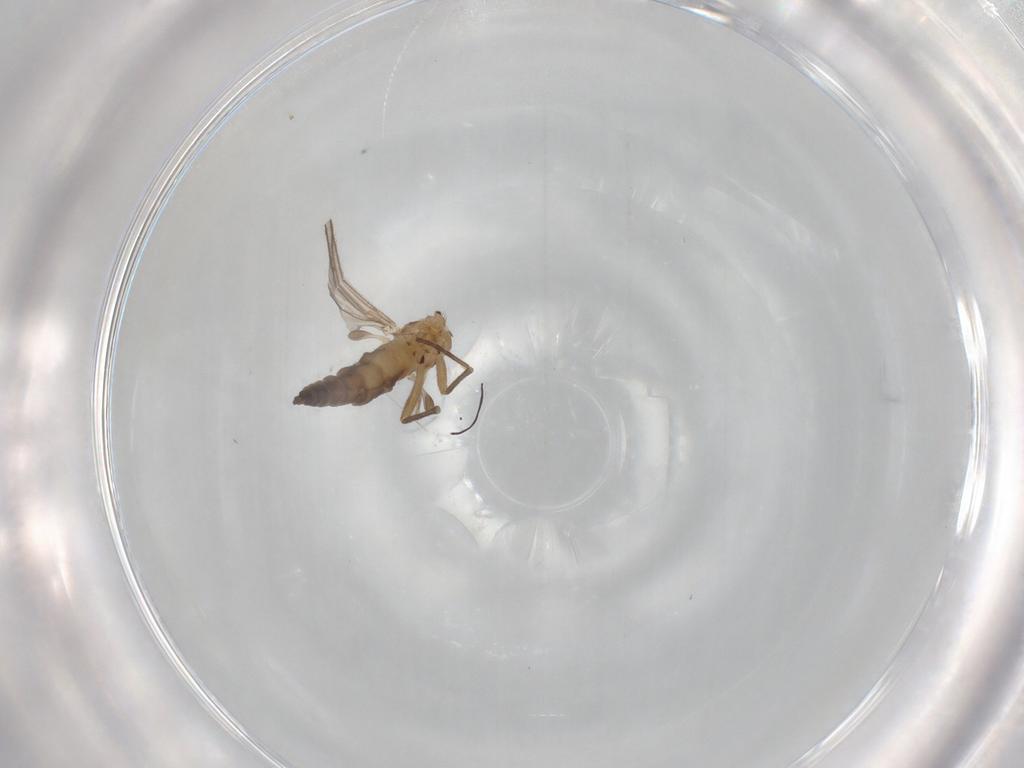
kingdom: Animalia
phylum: Arthropoda
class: Insecta
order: Diptera
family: Sciaridae
